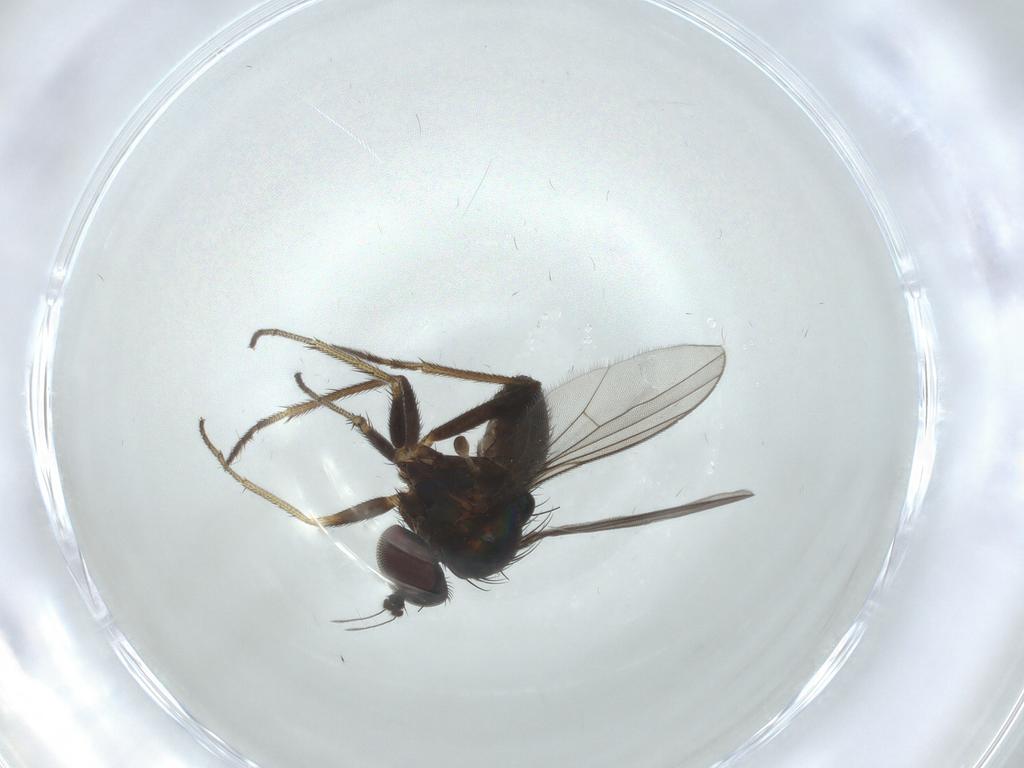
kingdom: Animalia
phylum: Arthropoda
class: Insecta
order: Diptera
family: Dolichopodidae
